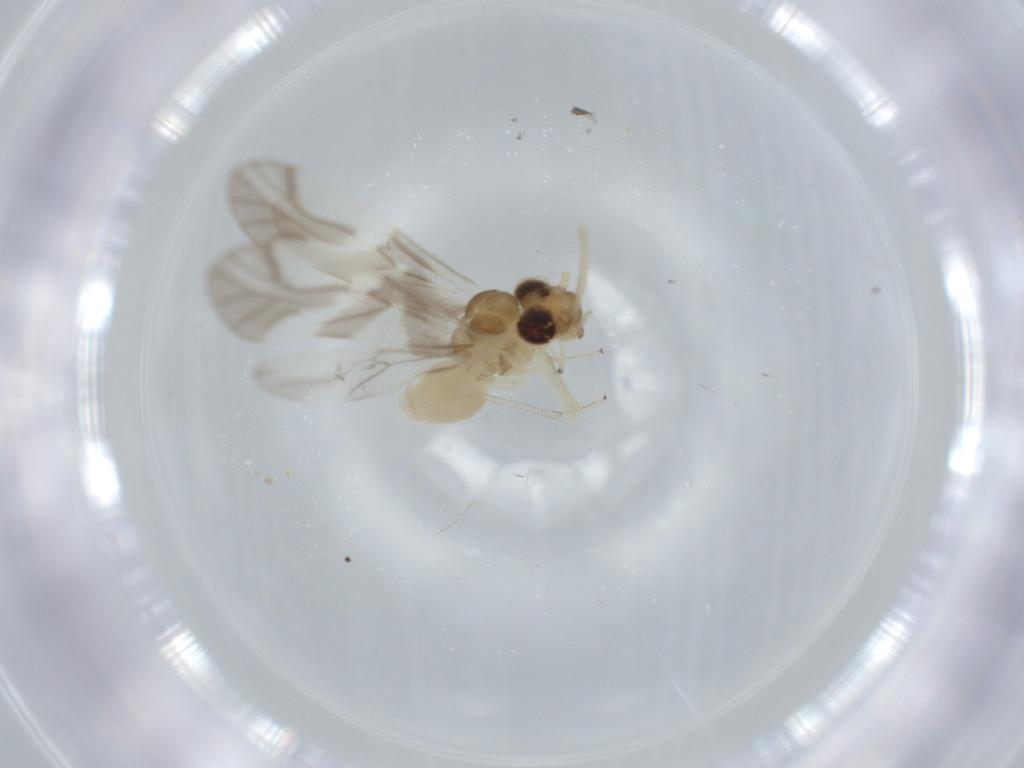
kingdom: Animalia
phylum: Arthropoda
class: Insecta
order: Psocodea
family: Caeciliusidae
